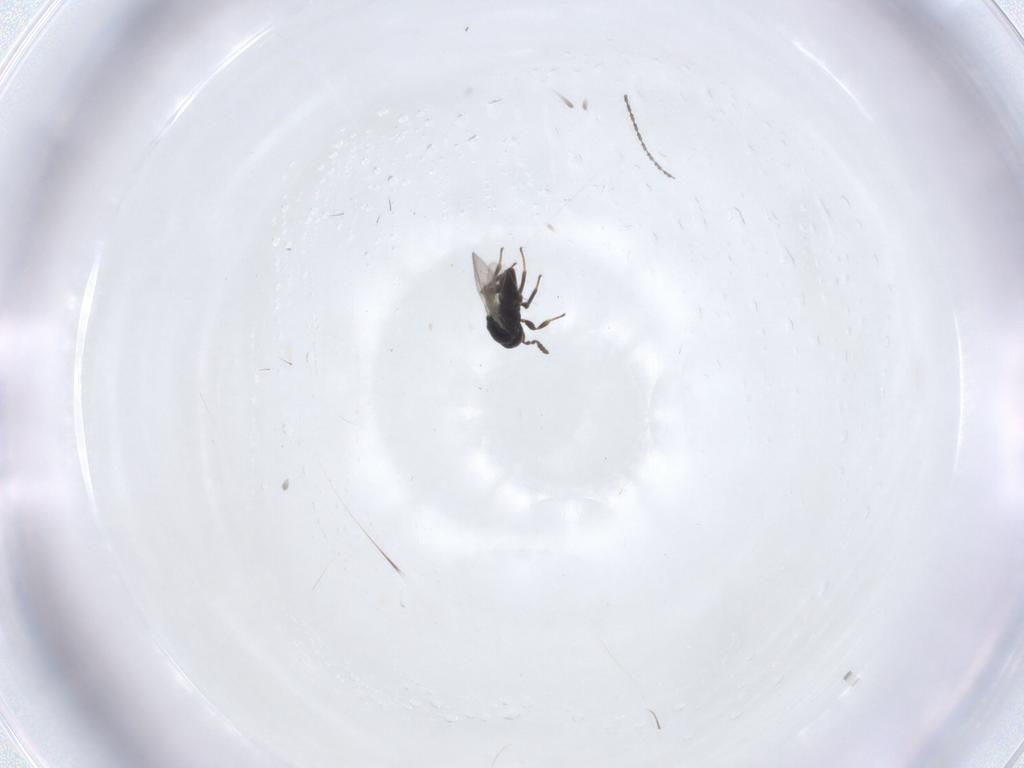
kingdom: Animalia
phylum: Arthropoda
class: Insecta
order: Hymenoptera
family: Platygastridae
